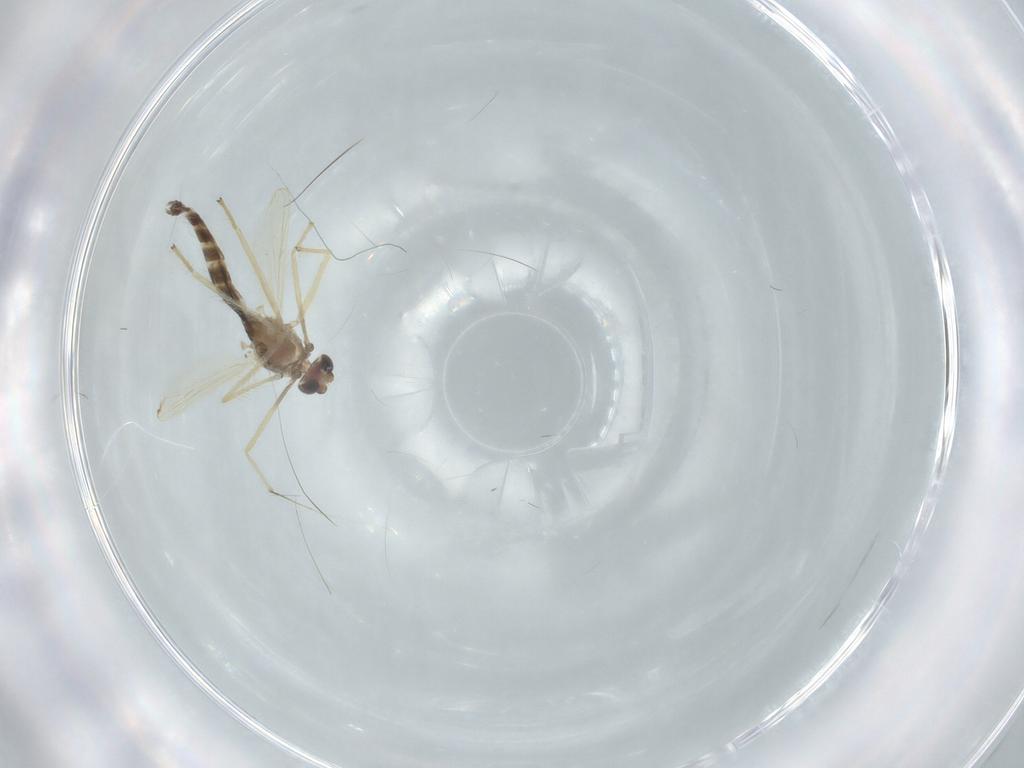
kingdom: Animalia
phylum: Arthropoda
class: Insecta
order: Diptera
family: Chironomidae
